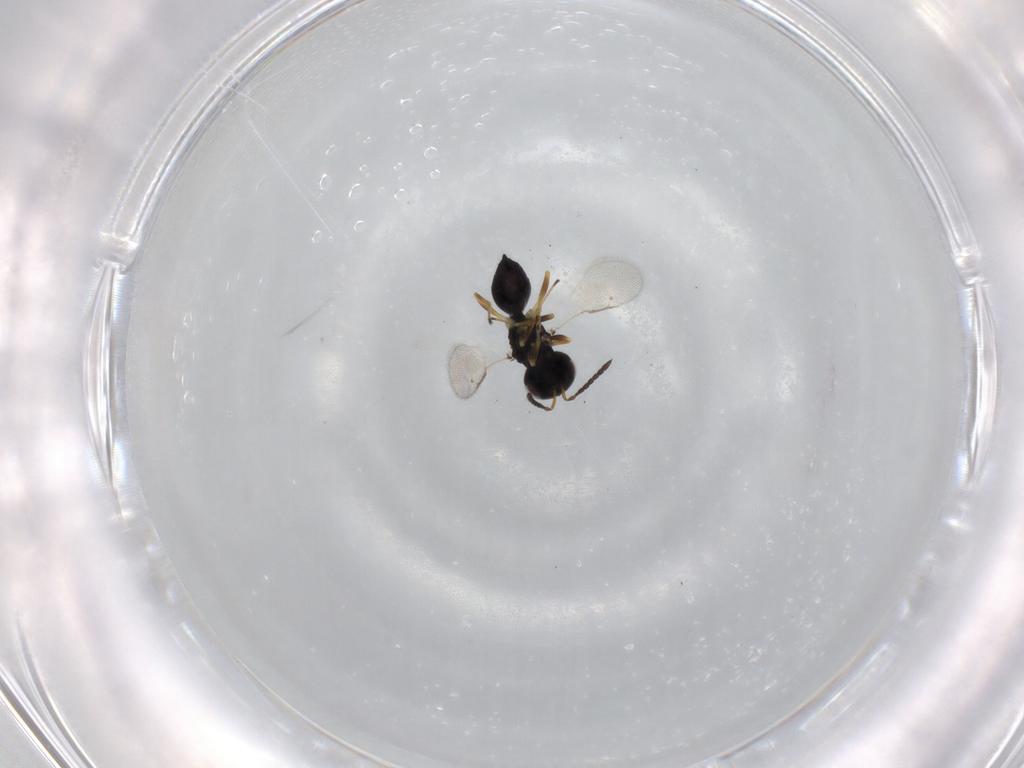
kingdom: Animalia
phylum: Arthropoda
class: Insecta
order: Hymenoptera
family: Pteromalidae
